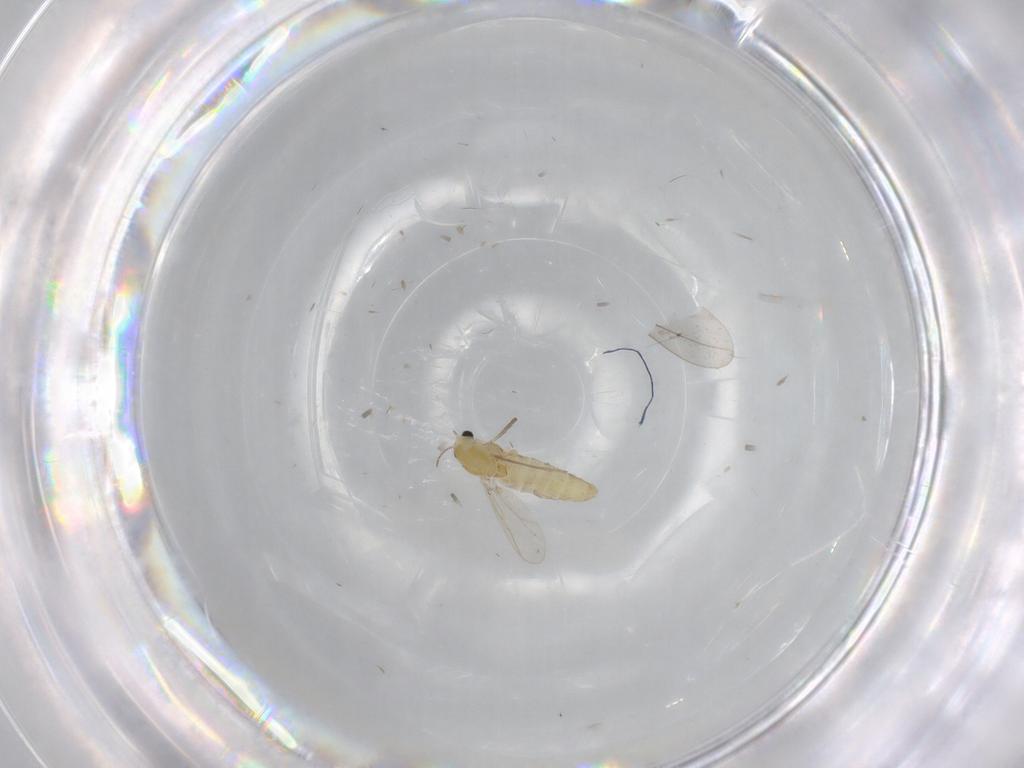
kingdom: Animalia
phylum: Arthropoda
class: Insecta
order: Diptera
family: Chironomidae
